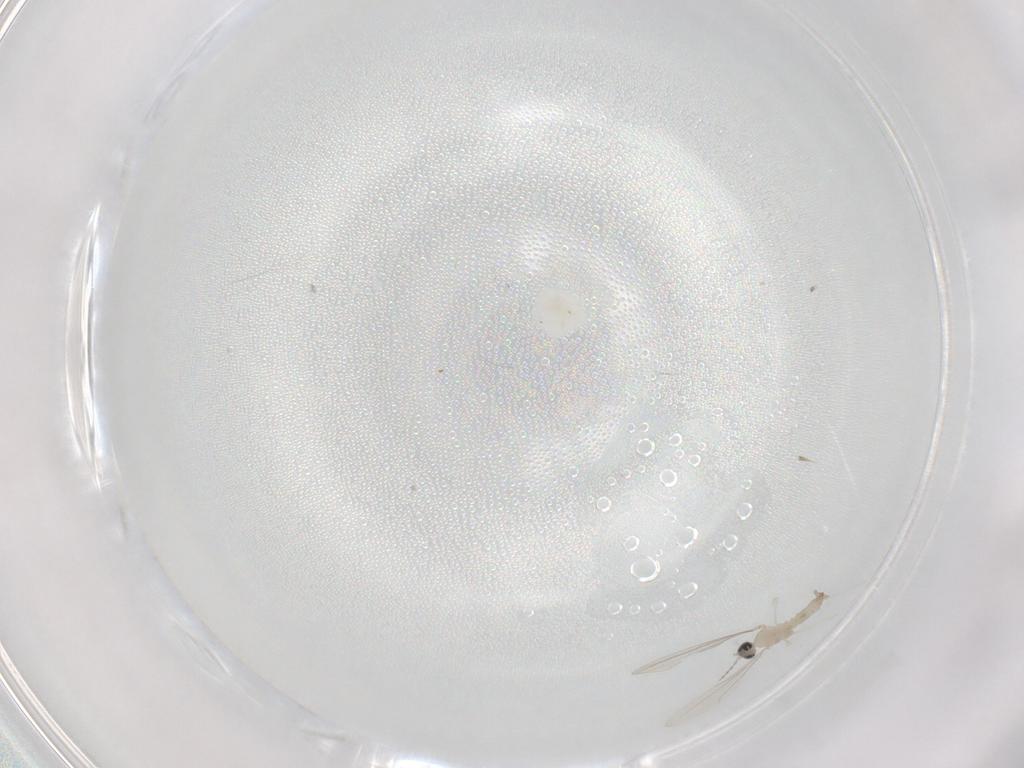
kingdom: Animalia
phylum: Arthropoda
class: Insecta
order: Diptera
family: Cecidomyiidae
